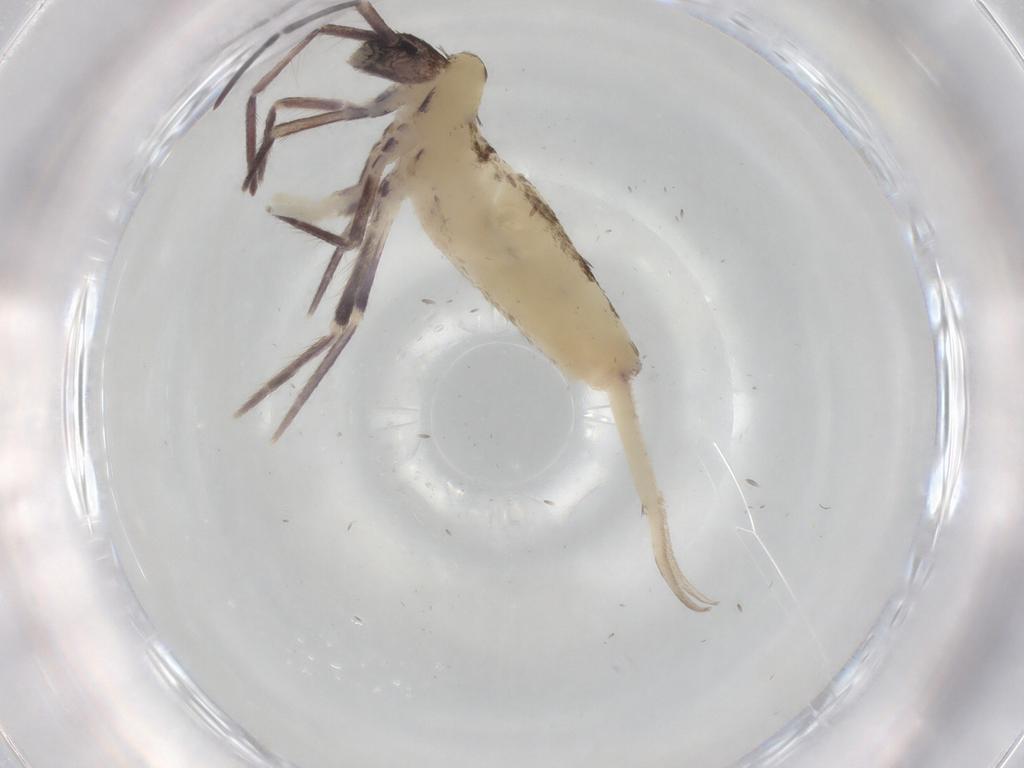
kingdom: Animalia
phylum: Arthropoda
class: Collembola
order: Entomobryomorpha
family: Entomobryidae
